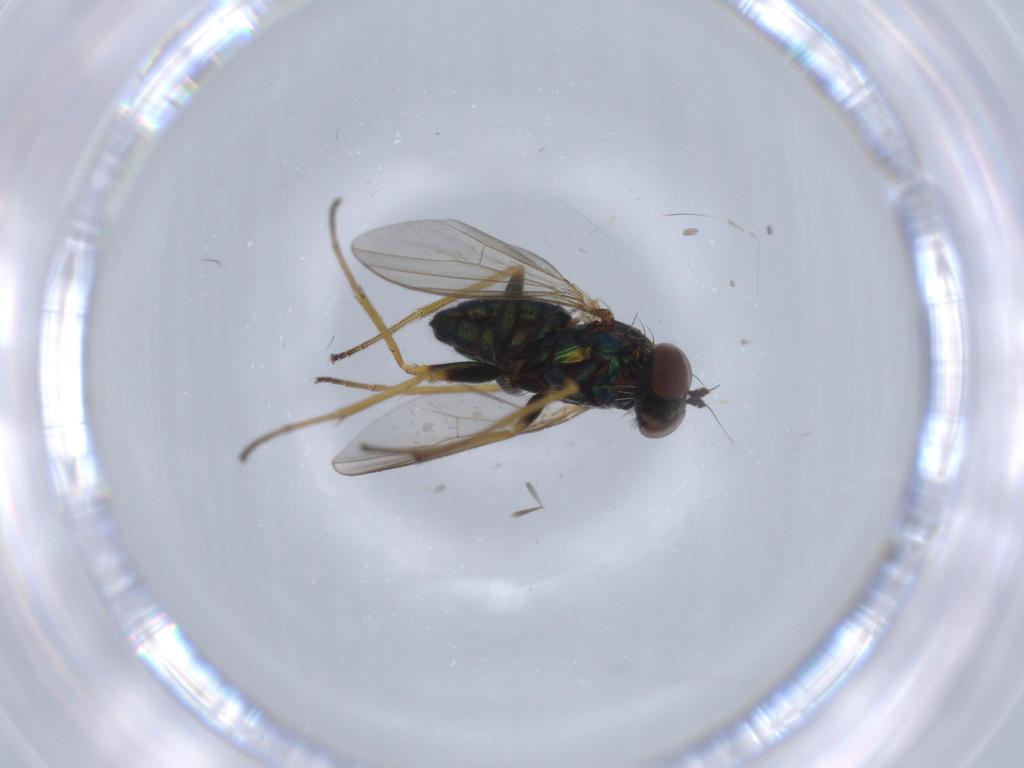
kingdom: Animalia
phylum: Arthropoda
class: Insecta
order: Diptera
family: Dolichopodidae
